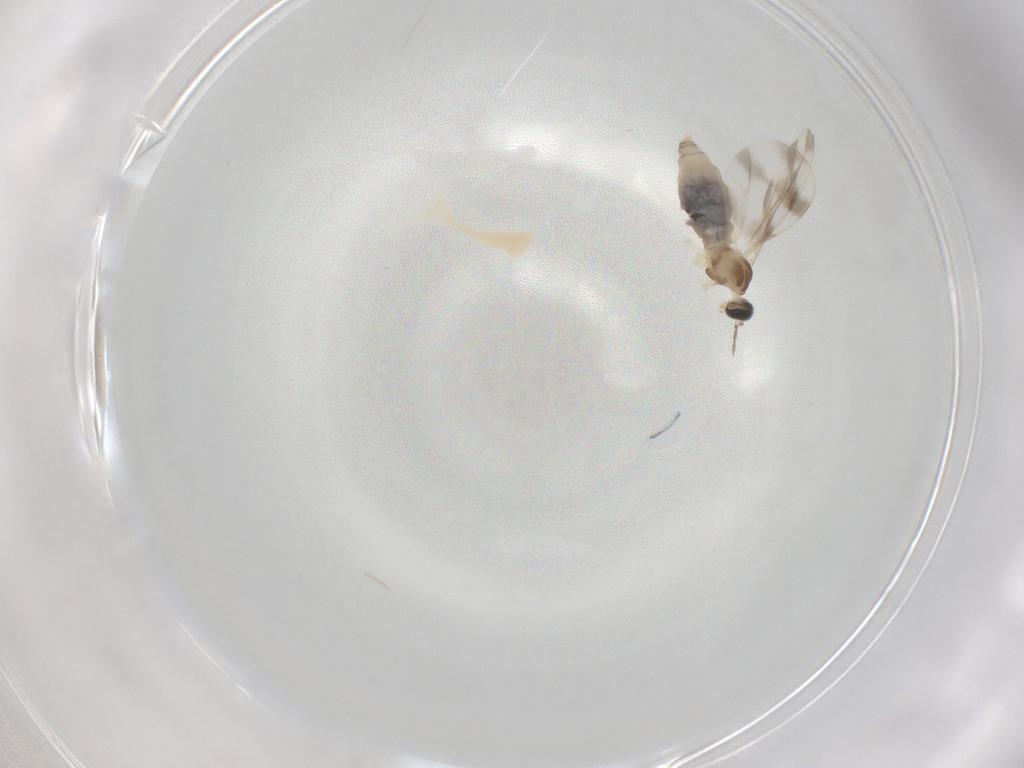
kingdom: Animalia
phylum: Arthropoda
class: Insecta
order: Diptera
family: Cecidomyiidae
